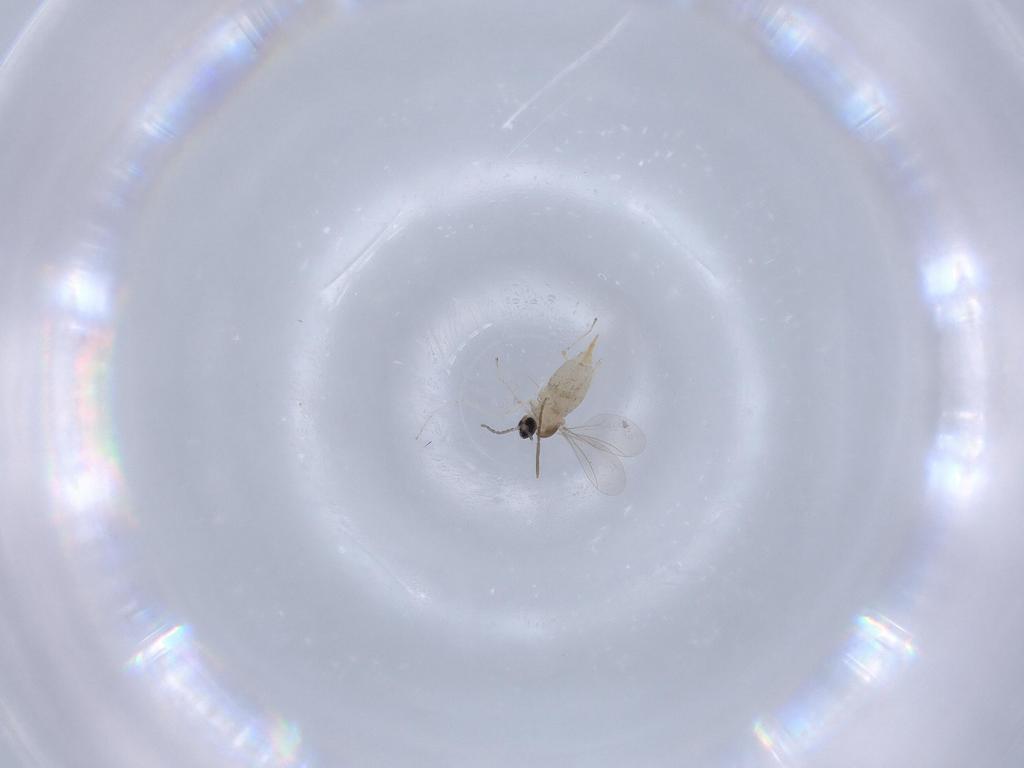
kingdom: Animalia
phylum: Arthropoda
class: Insecta
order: Diptera
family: Cecidomyiidae
